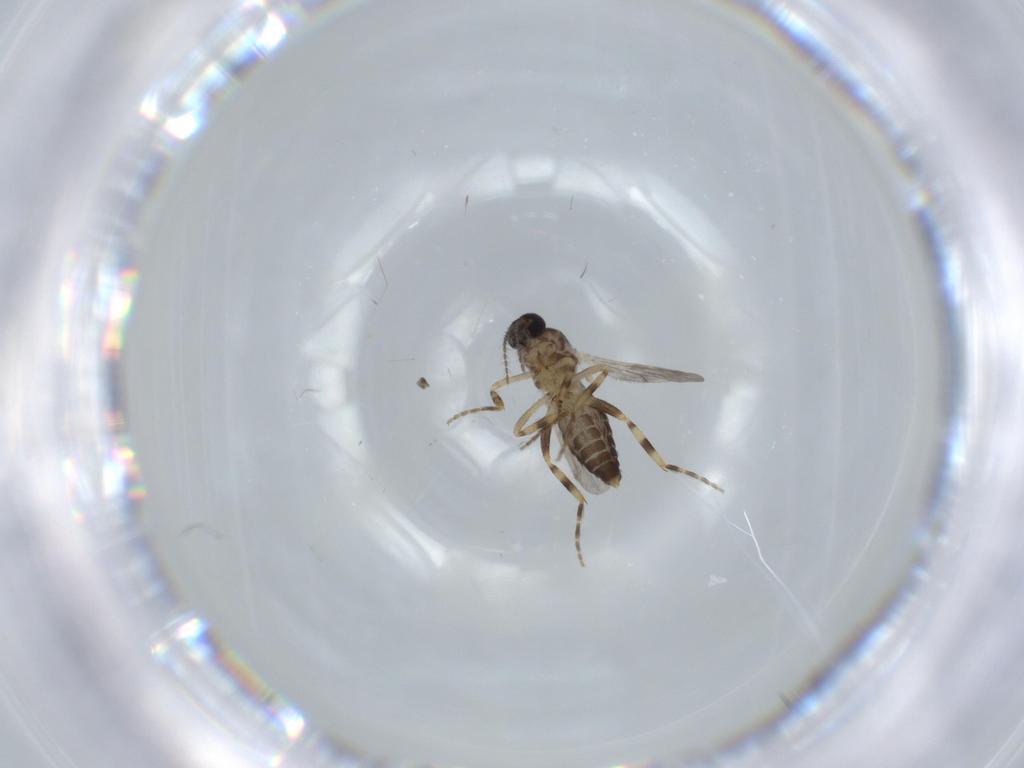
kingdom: Animalia
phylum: Arthropoda
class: Insecta
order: Diptera
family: Dolichopodidae
